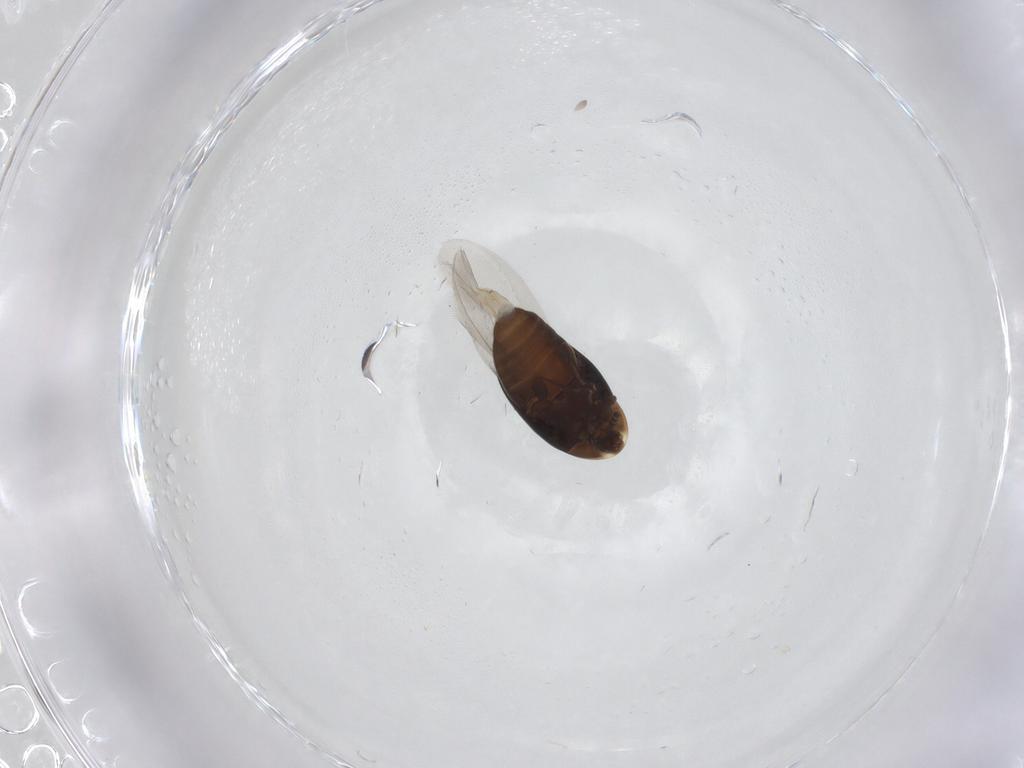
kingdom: Animalia
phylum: Arthropoda
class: Insecta
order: Coleoptera
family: Corylophidae
